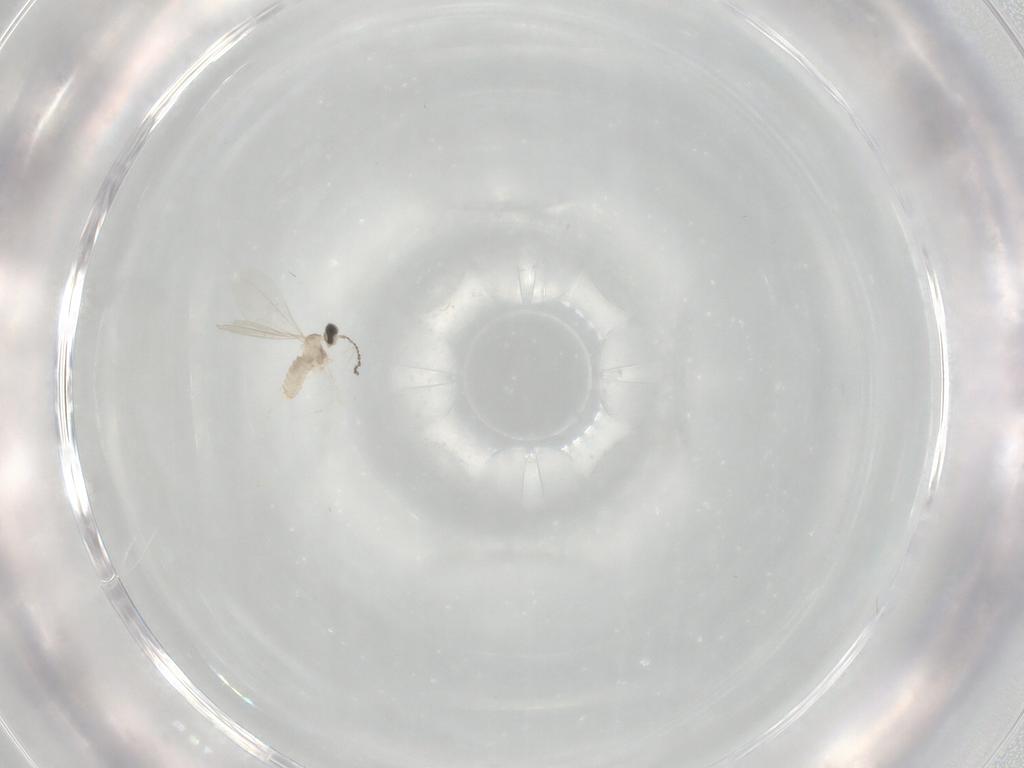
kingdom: Animalia
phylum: Arthropoda
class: Insecta
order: Diptera
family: Cecidomyiidae
